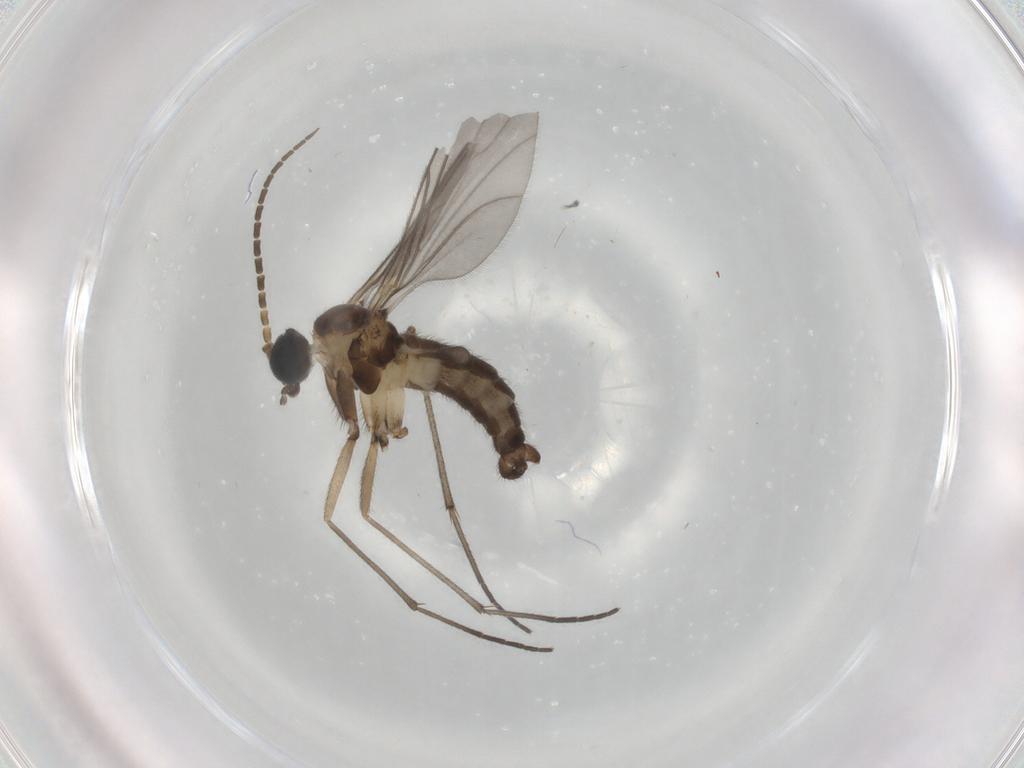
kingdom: Animalia
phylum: Arthropoda
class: Insecta
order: Diptera
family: Sciaridae
